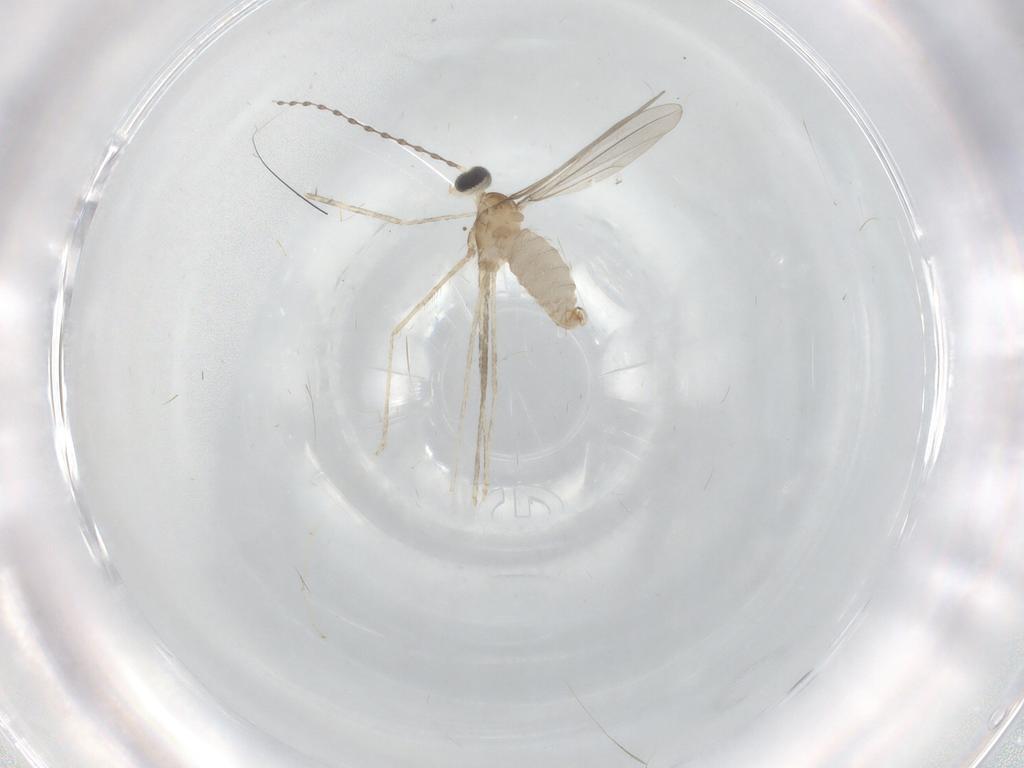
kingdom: Animalia
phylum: Arthropoda
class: Insecta
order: Diptera
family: Cecidomyiidae
